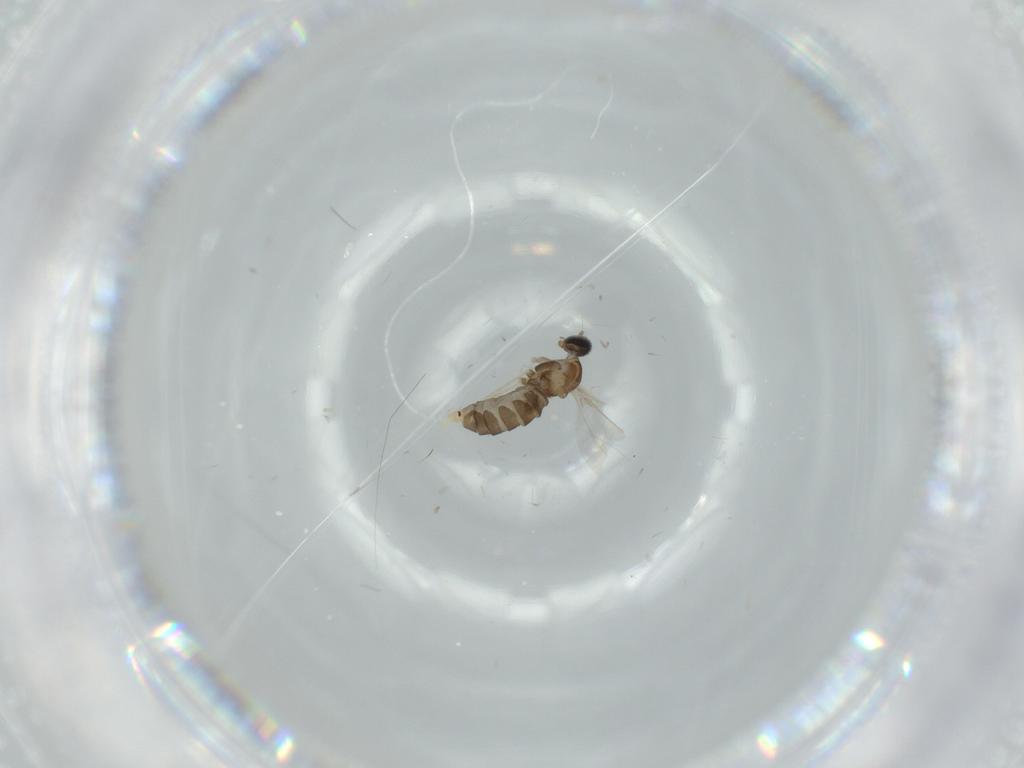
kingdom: Animalia
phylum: Arthropoda
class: Insecta
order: Diptera
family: Cecidomyiidae
